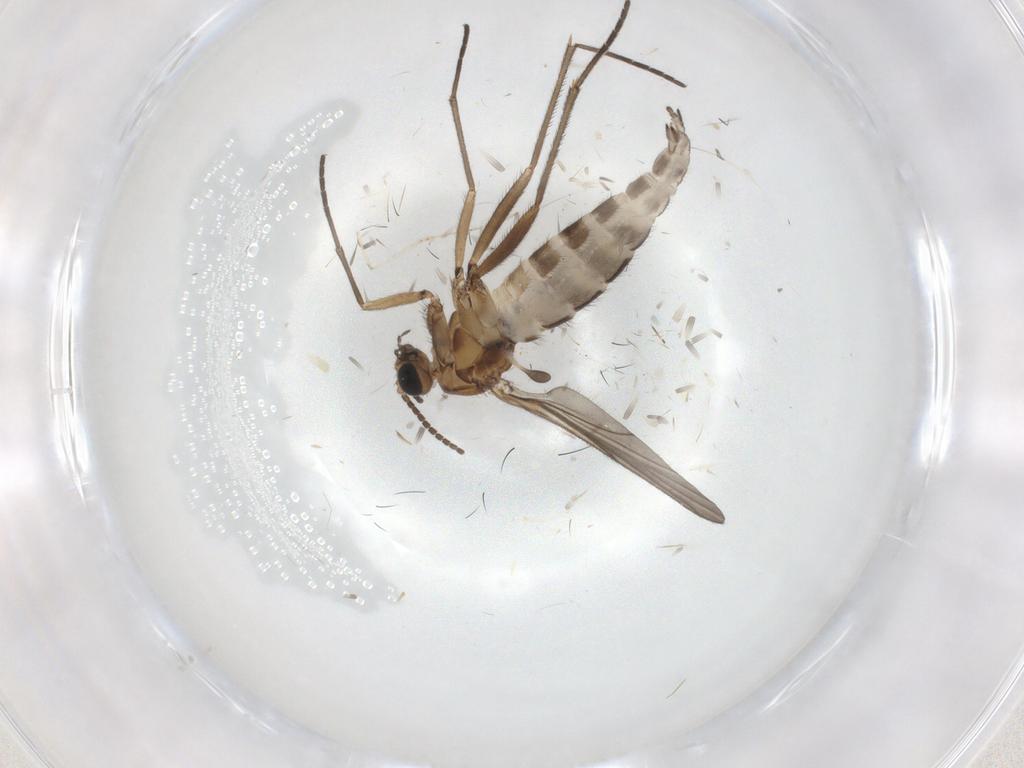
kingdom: Animalia
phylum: Arthropoda
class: Insecta
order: Diptera
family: Sciaridae
